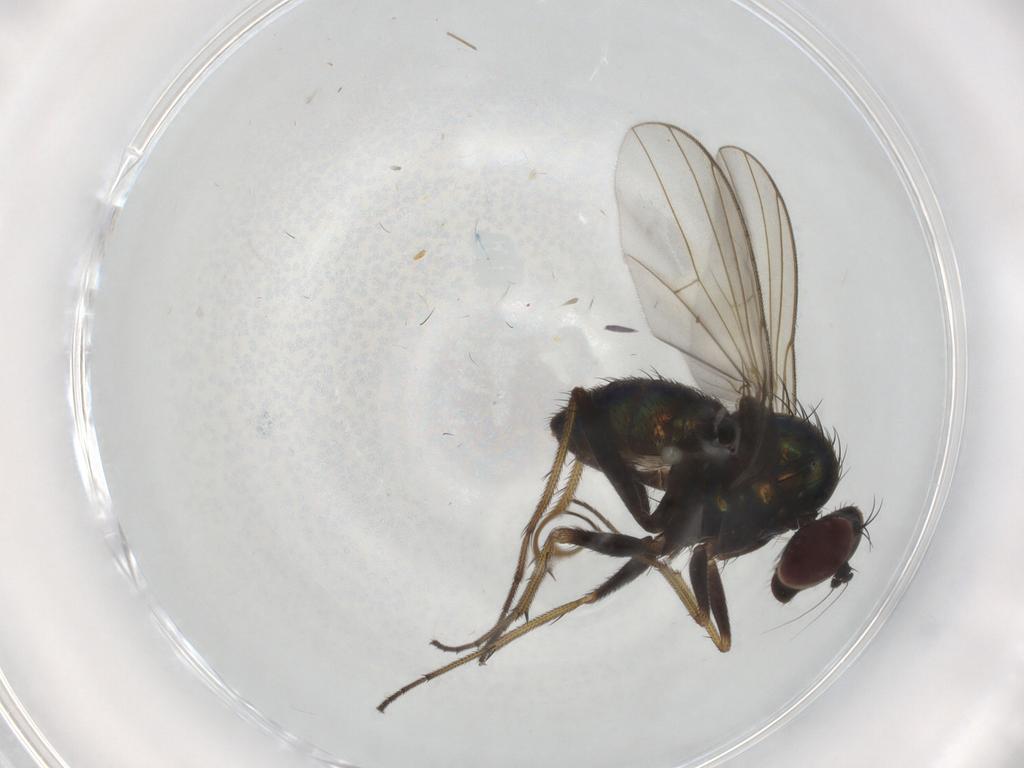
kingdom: Animalia
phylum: Arthropoda
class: Insecta
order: Diptera
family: Dolichopodidae
